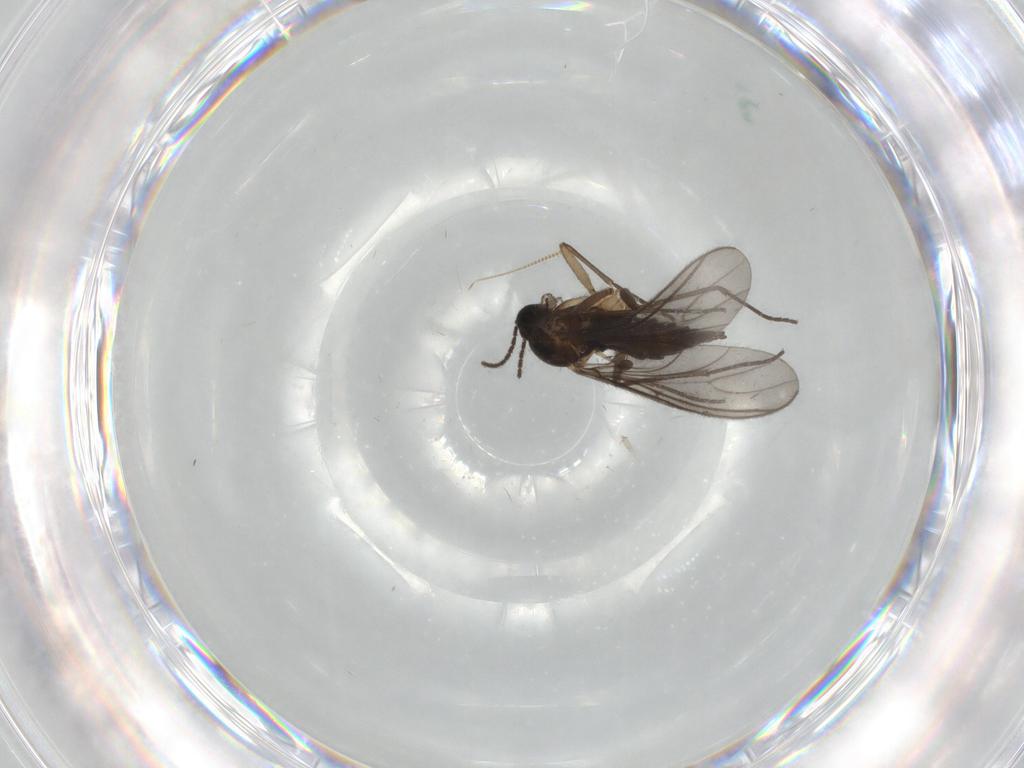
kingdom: Animalia
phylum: Arthropoda
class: Insecta
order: Diptera
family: Sciaridae
